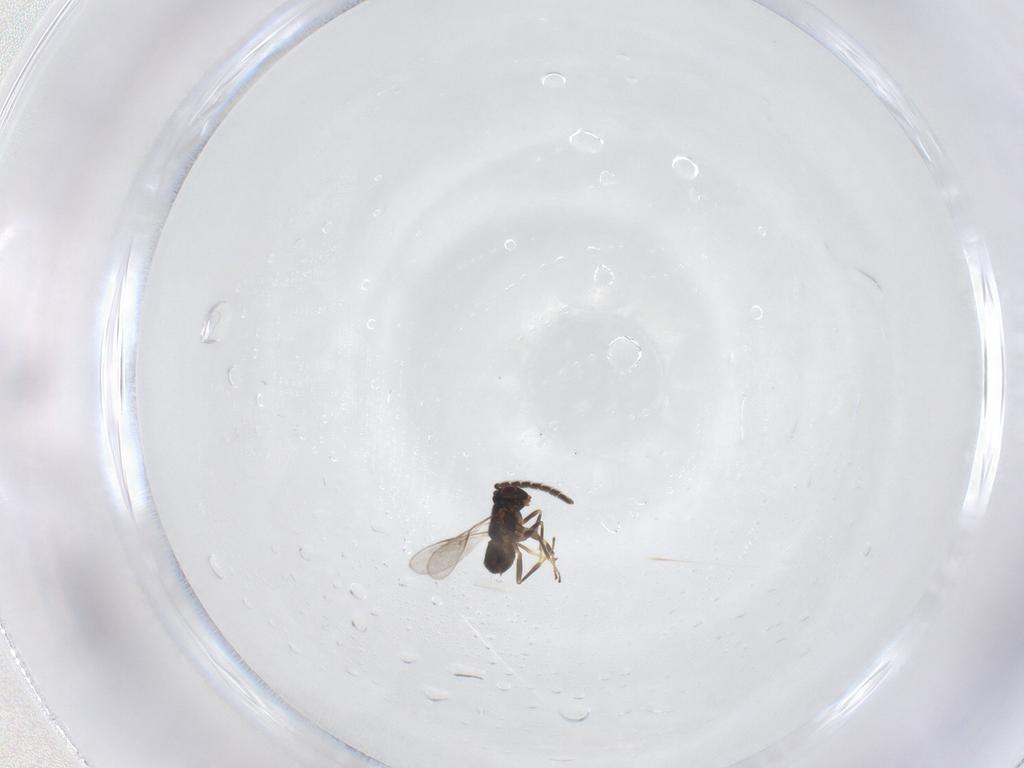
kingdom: Animalia
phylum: Arthropoda
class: Insecta
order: Hymenoptera
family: Encyrtidae
